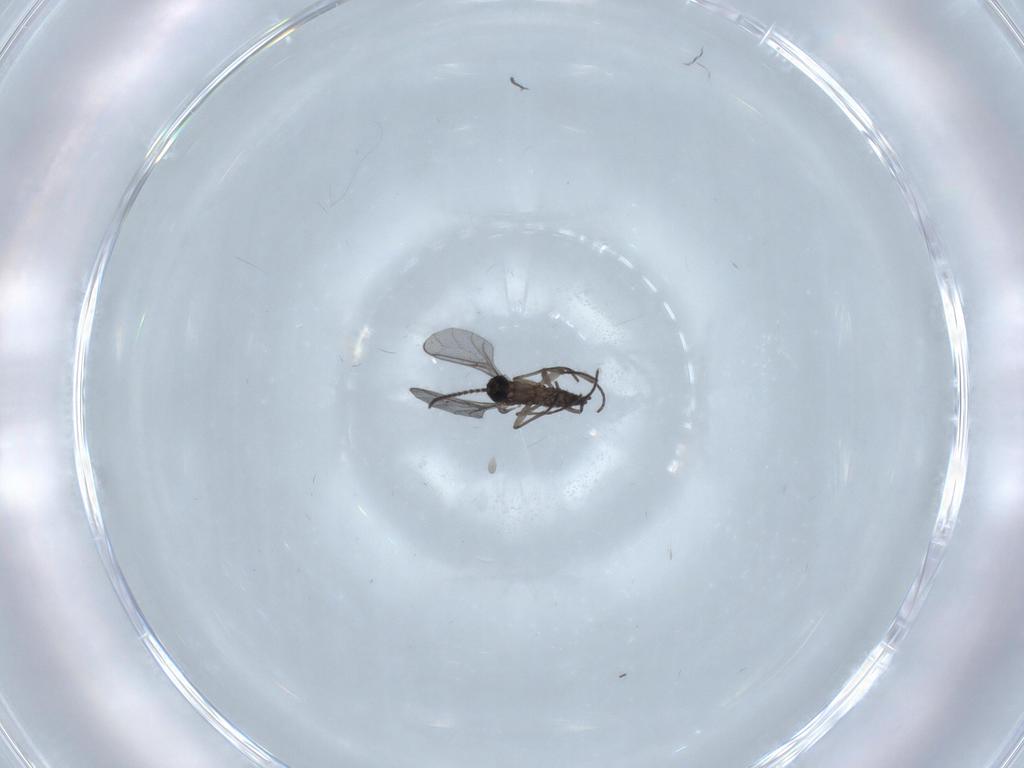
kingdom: Animalia
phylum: Arthropoda
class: Insecta
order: Diptera
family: Sciaridae
